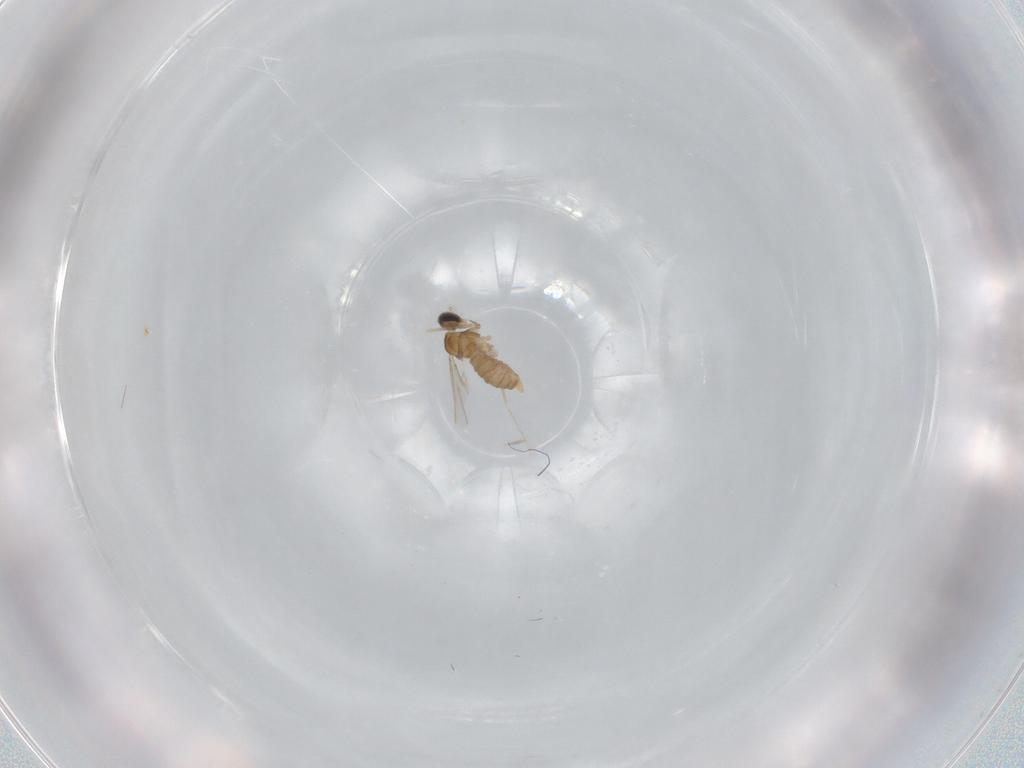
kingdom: Animalia
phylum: Arthropoda
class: Insecta
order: Diptera
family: Cecidomyiidae
